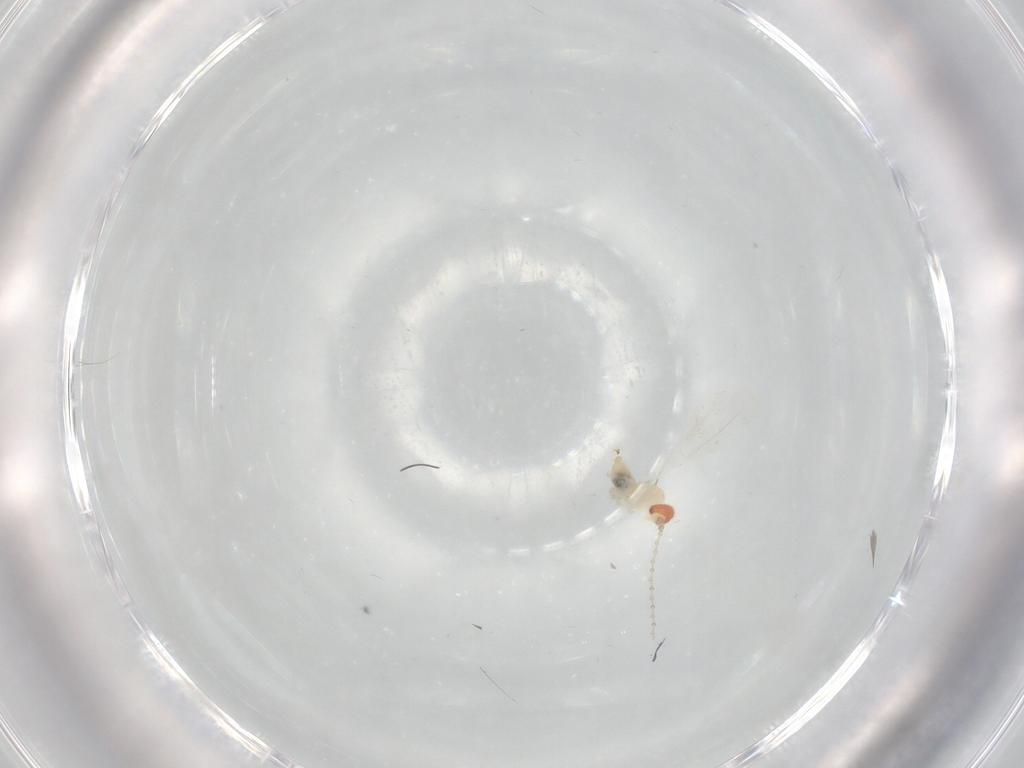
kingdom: Animalia
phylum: Arthropoda
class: Insecta
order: Diptera
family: Cecidomyiidae
